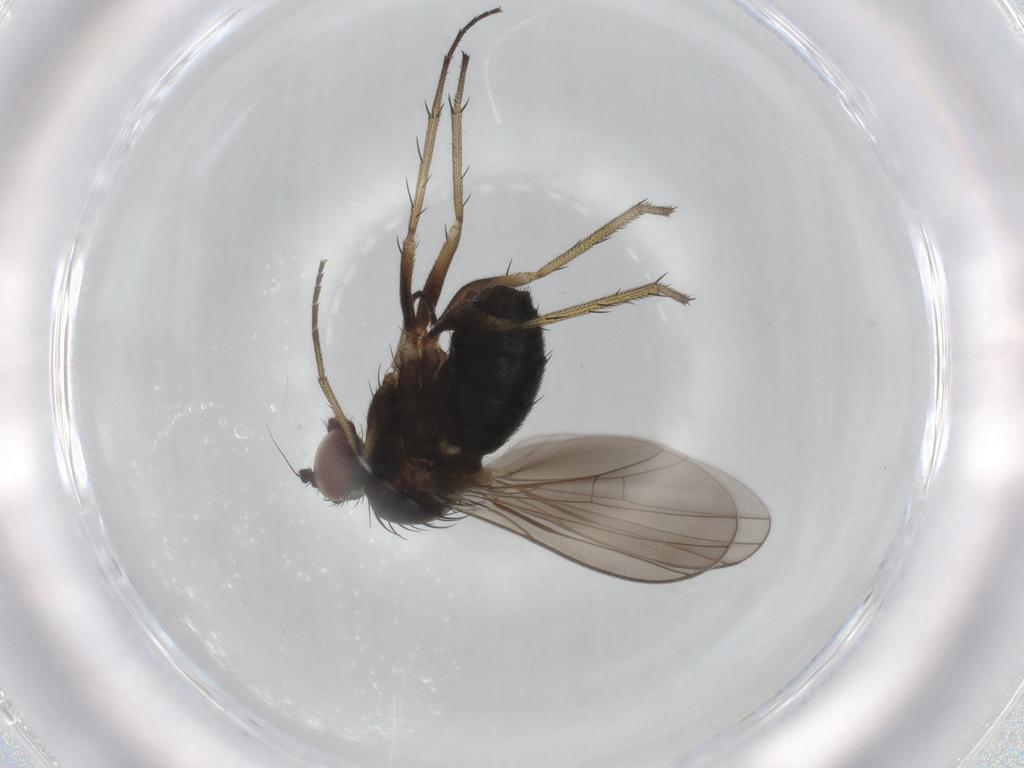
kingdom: Animalia
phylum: Arthropoda
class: Insecta
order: Diptera
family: Dolichopodidae
